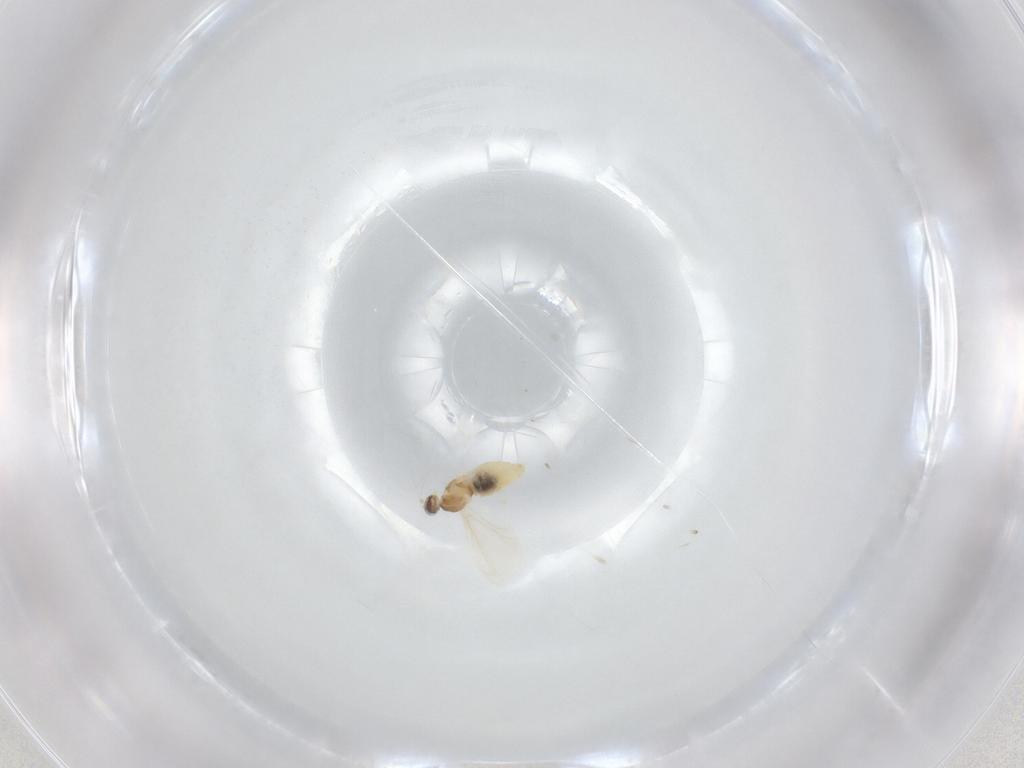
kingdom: Animalia
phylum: Arthropoda
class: Insecta
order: Diptera
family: Cecidomyiidae
